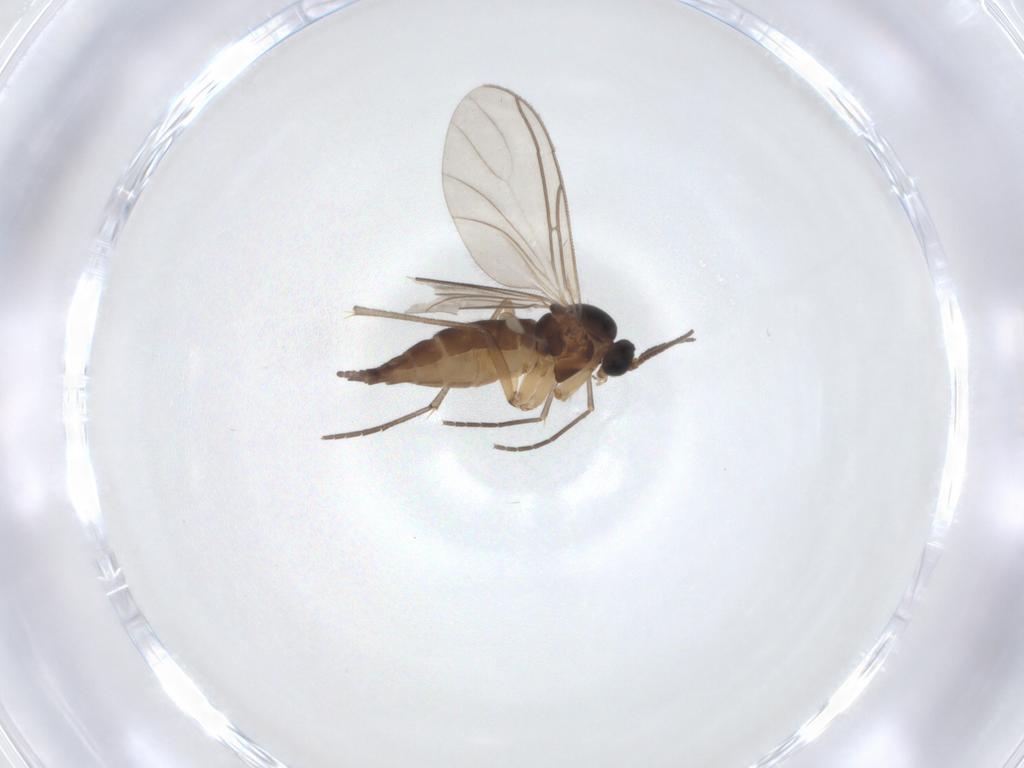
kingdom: Animalia
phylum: Arthropoda
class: Insecta
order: Diptera
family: Sciaridae
